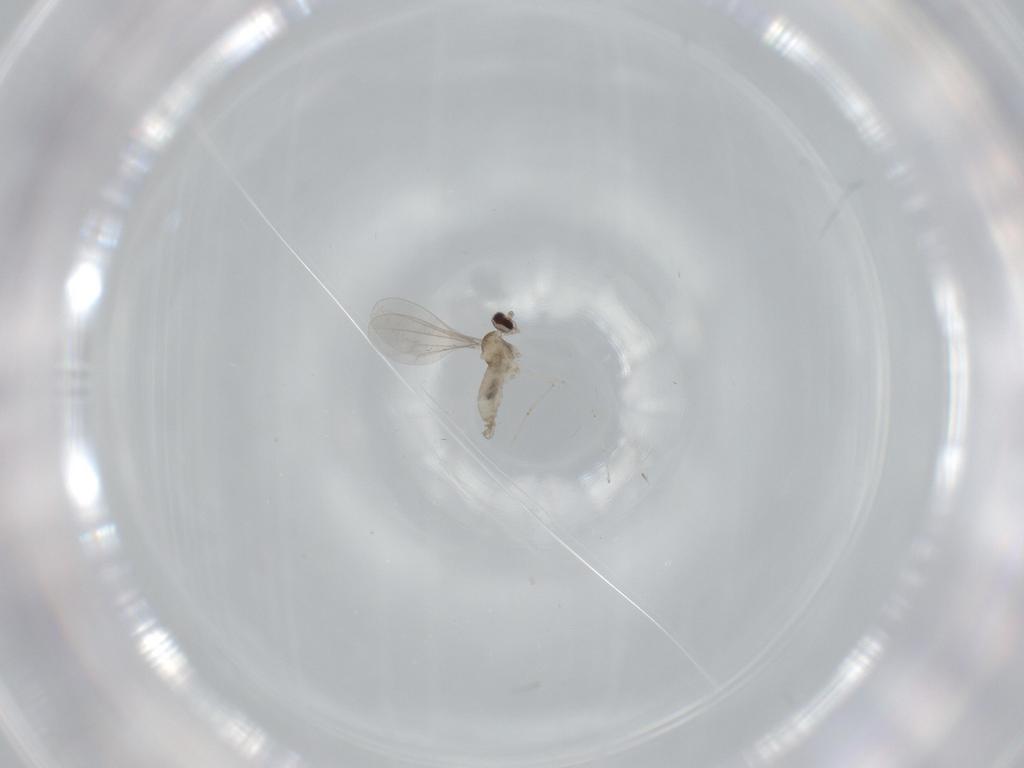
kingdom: Animalia
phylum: Arthropoda
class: Insecta
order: Diptera
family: Cecidomyiidae
